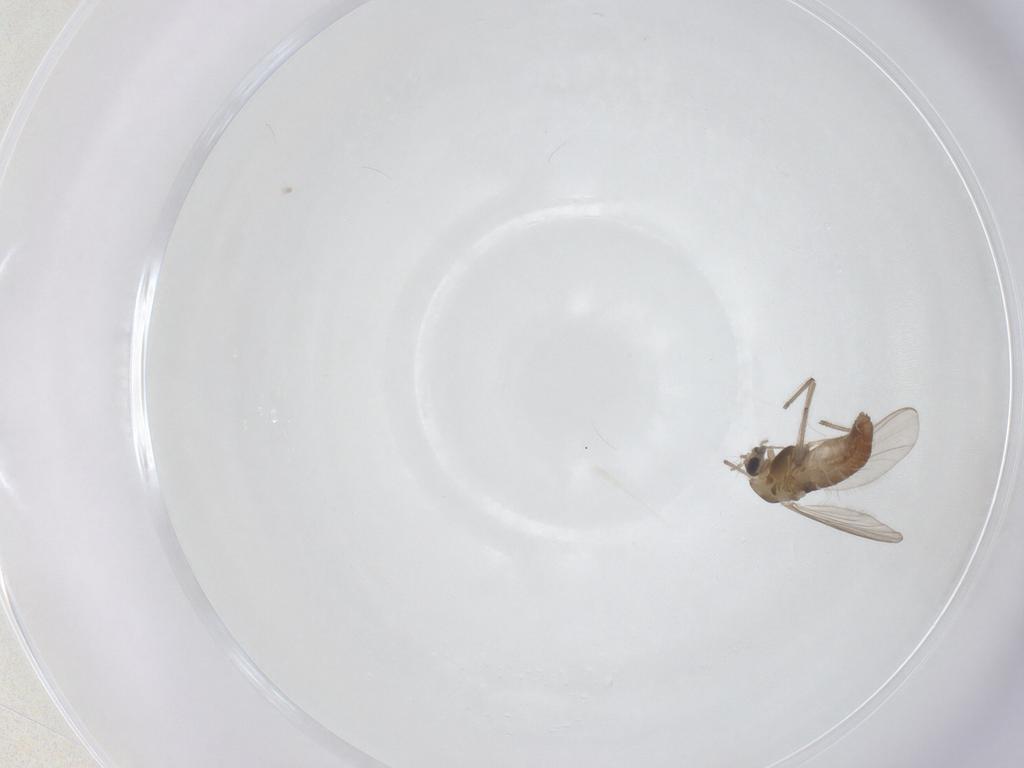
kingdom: Animalia
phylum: Arthropoda
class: Insecta
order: Diptera
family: Chironomidae
